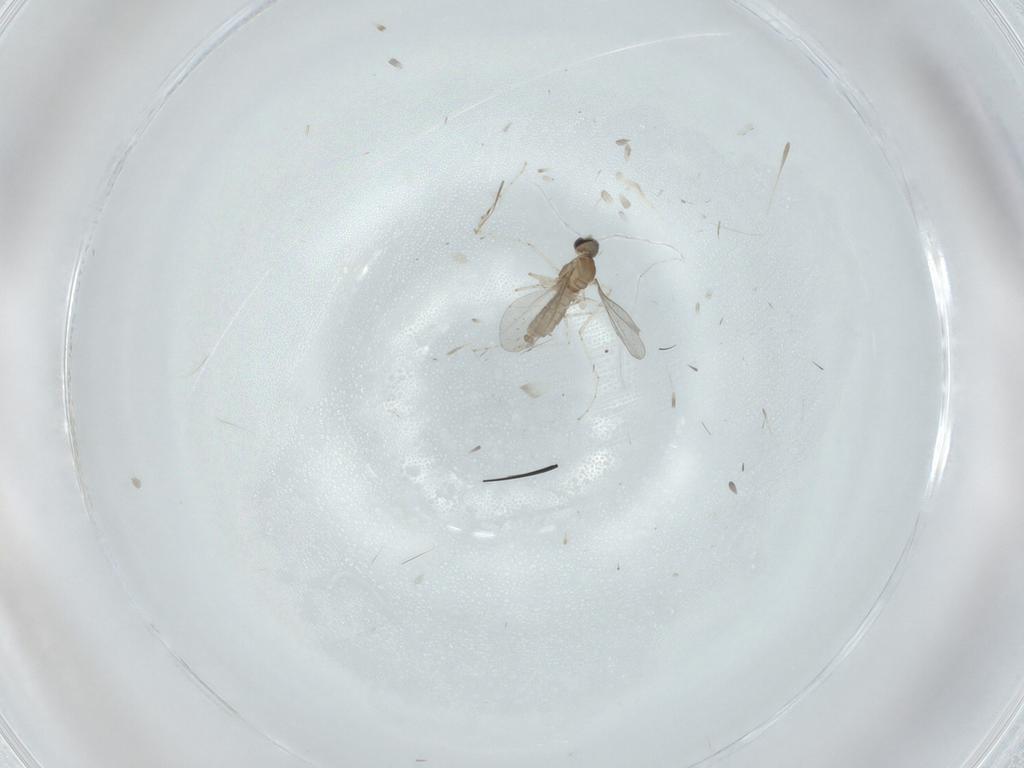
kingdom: Animalia
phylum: Arthropoda
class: Insecta
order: Diptera
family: Cecidomyiidae
